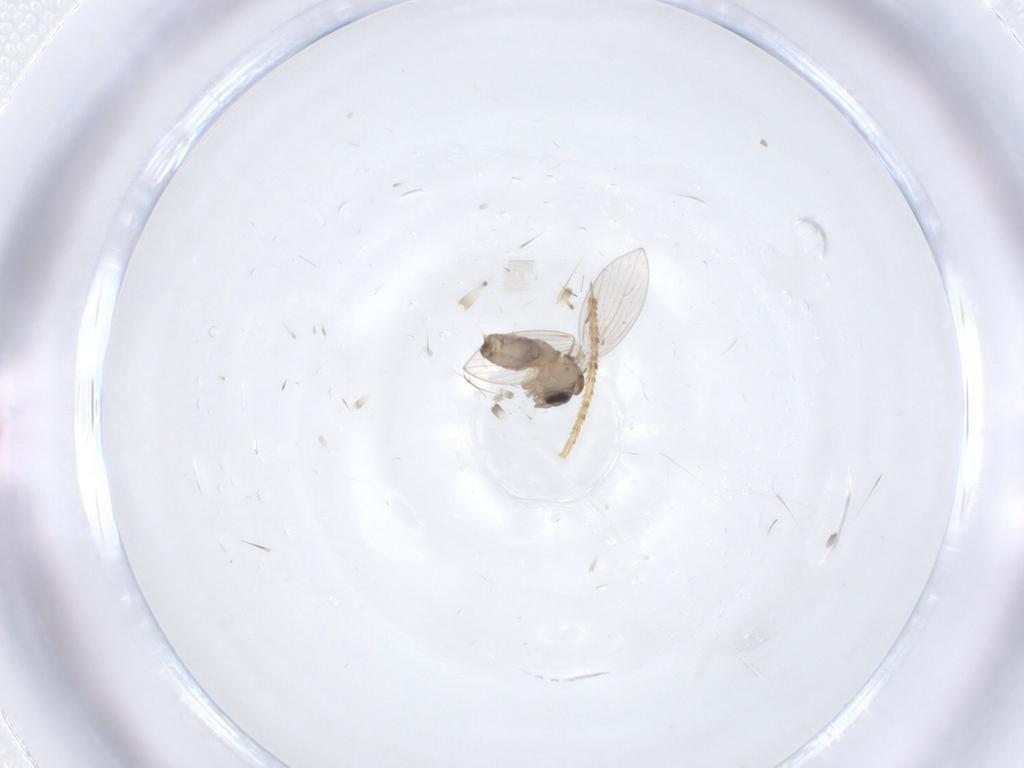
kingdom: Animalia
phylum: Arthropoda
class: Insecta
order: Diptera
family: Psychodidae
